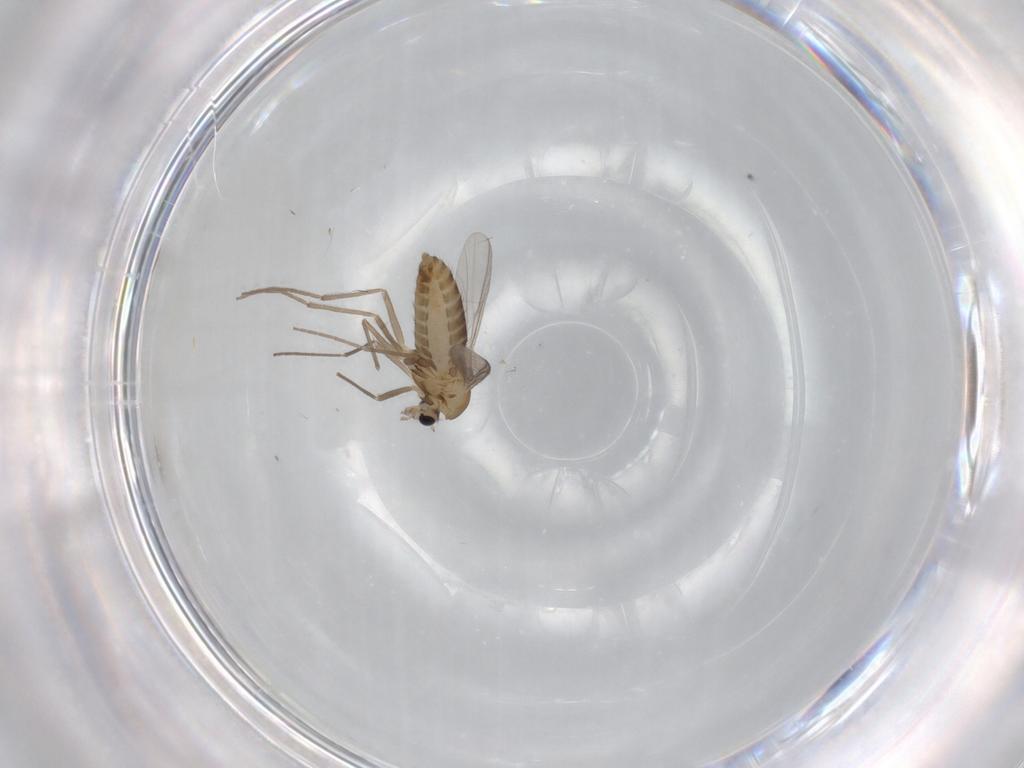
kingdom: Animalia
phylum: Arthropoda
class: Insecta
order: Diptera
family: Chironomidae
